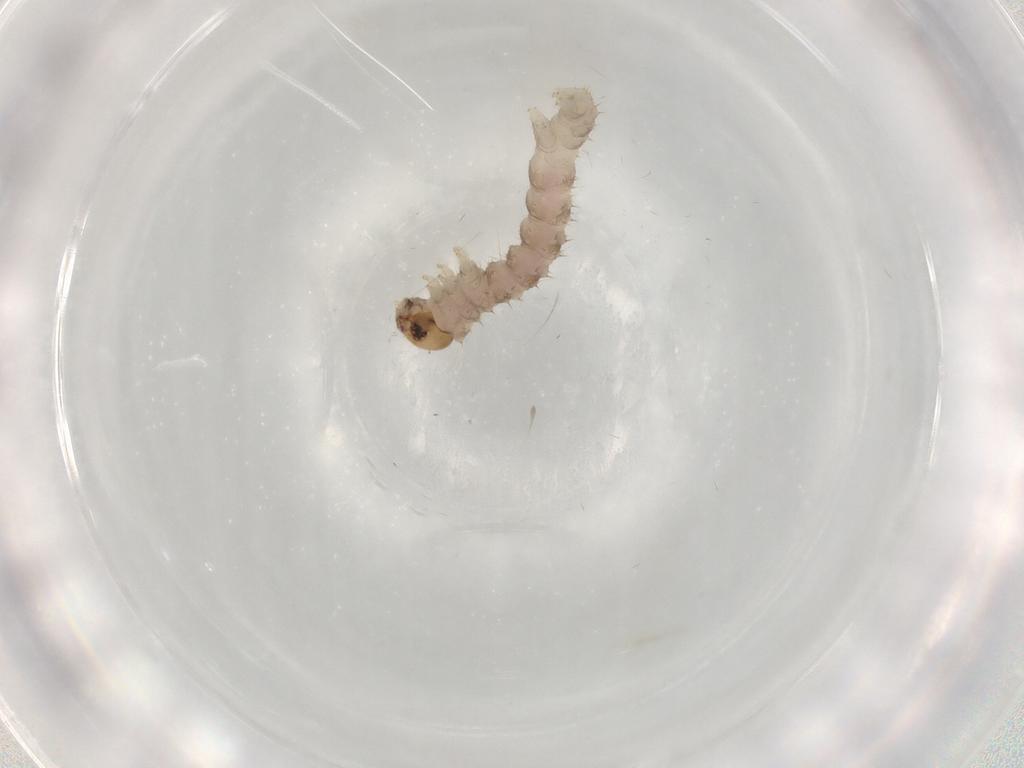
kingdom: Animalia
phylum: Arthropoda
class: Insecta
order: Lepidoptera
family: Geometridae
